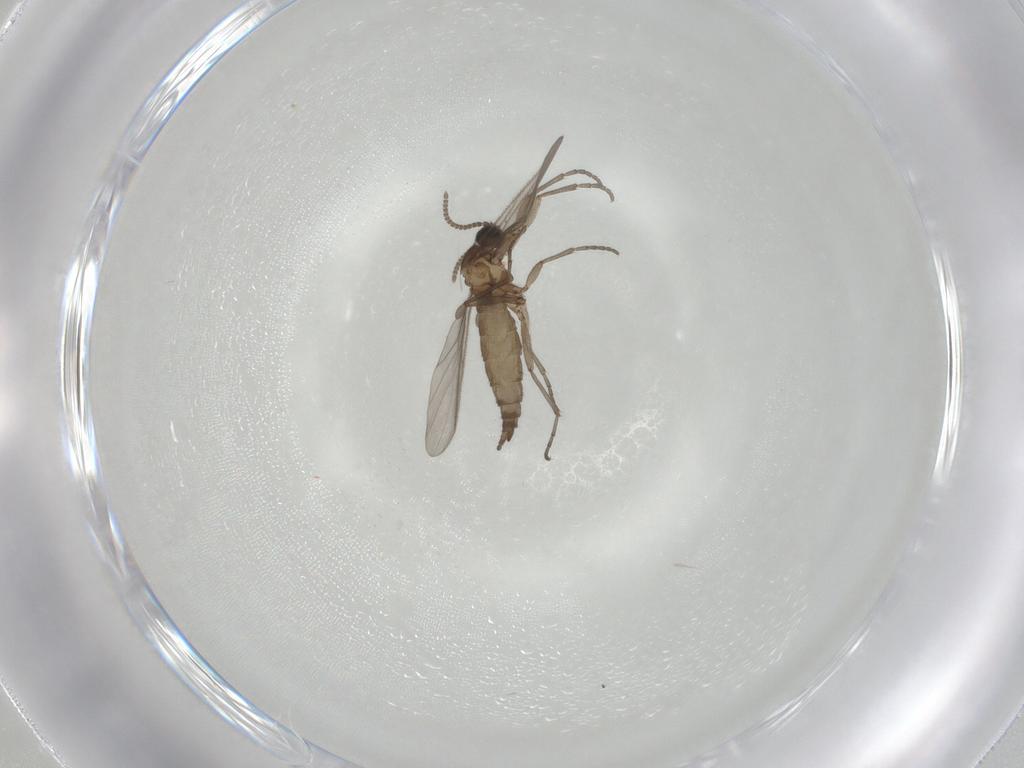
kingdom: Animalia
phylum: Arthropoda
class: Insecta
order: Diptera
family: Sciaridae
